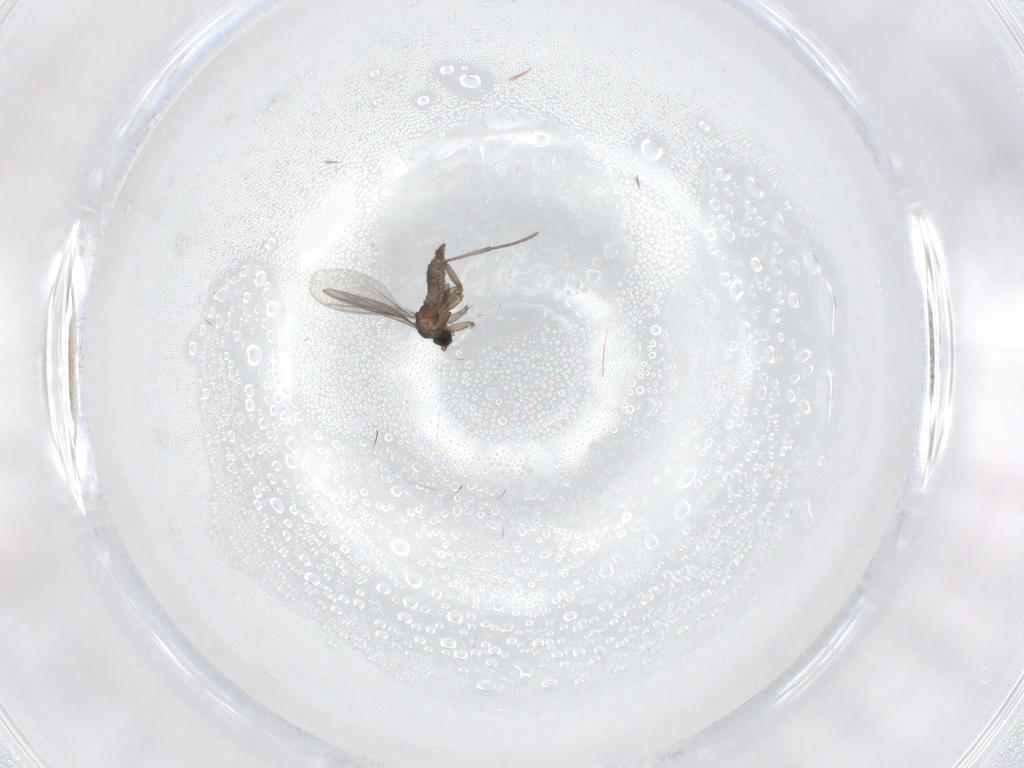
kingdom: Animalia
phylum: Arthropoda
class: Insecta
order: Diptera
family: Sciaridae
